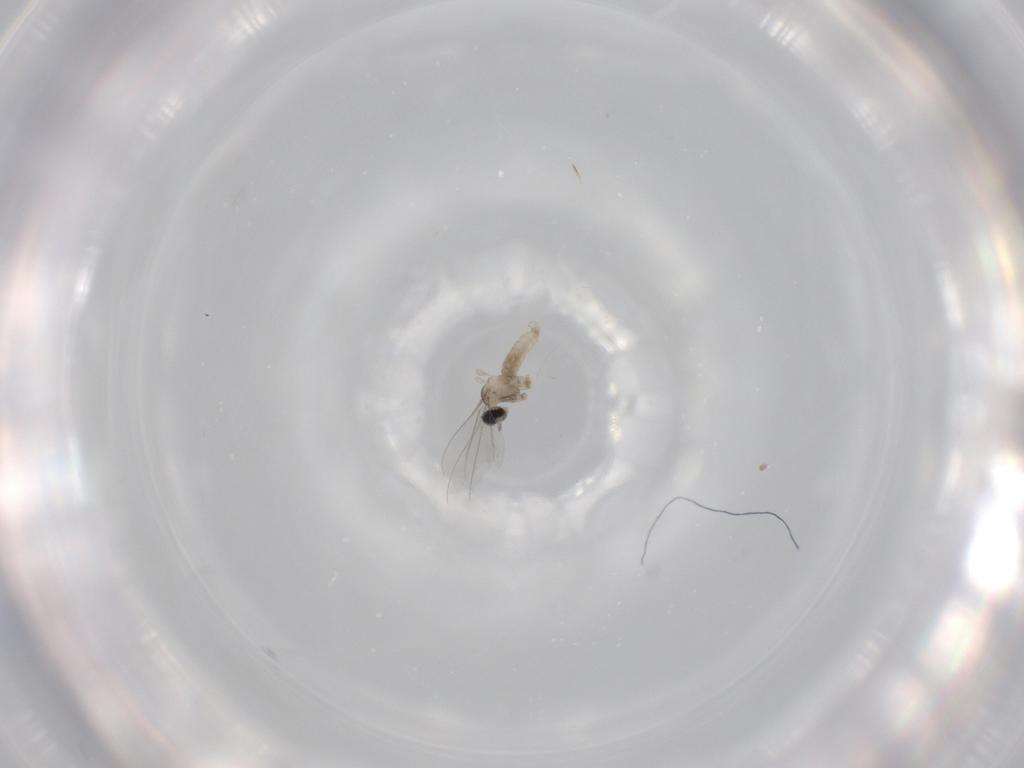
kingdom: Animalia
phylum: Arthropoda
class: Insecta
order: Diptera
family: Cecidomyiidae
